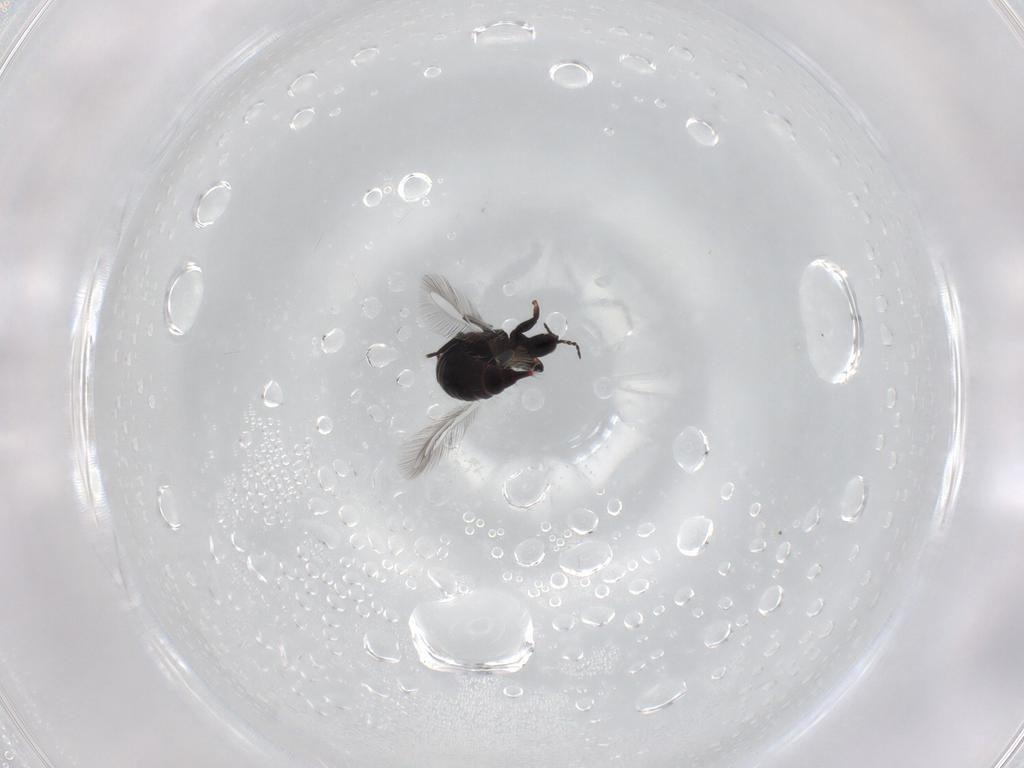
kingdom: Animalia
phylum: Arthropoda
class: Insecta
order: Thysanoptera
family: Phlaeothripidae
